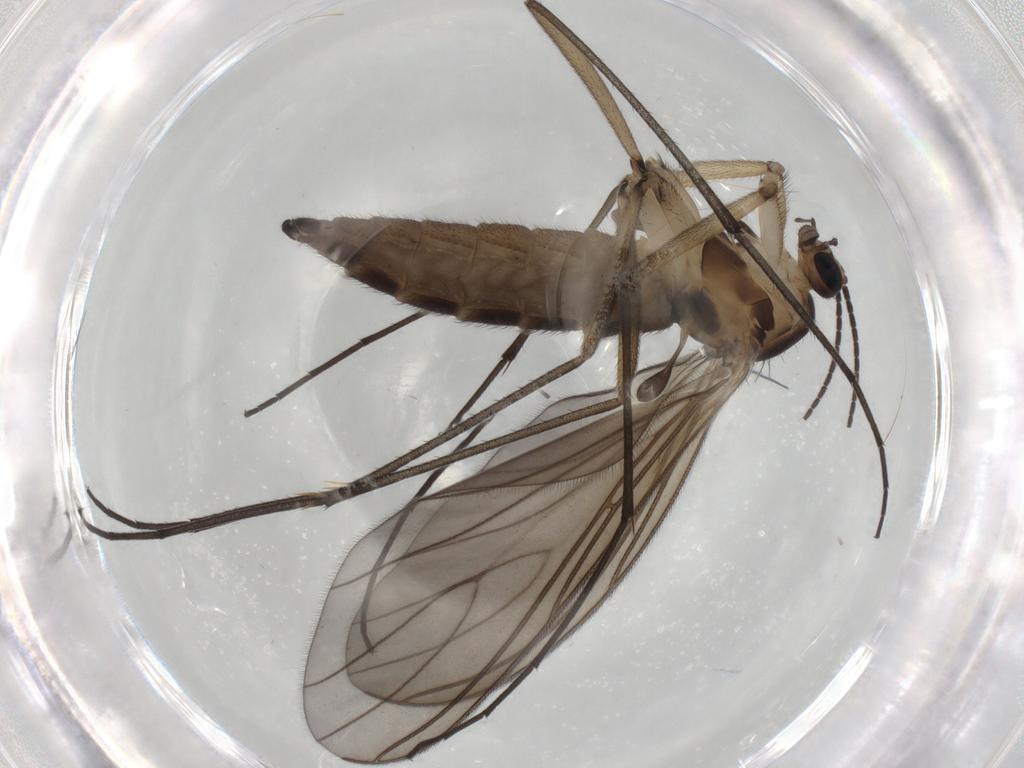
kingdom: Animalia
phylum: Arthropoda
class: Insecta
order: Diptera
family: Sciaridae
